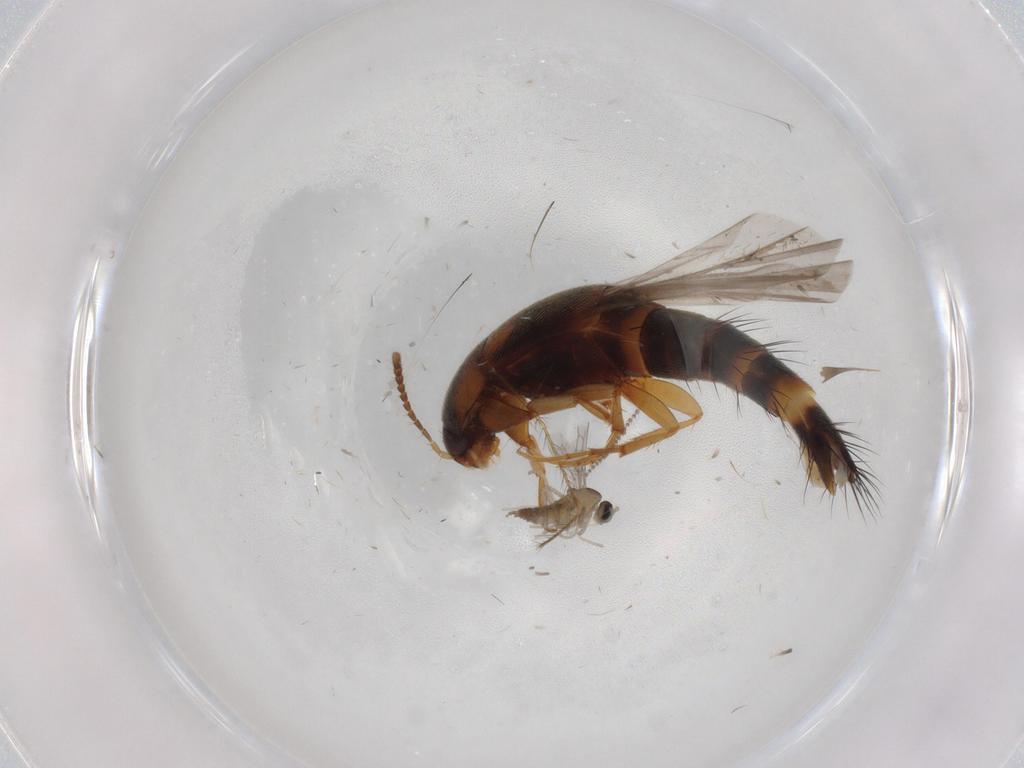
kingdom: Animalia
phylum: Arthropoda
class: Insecta
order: Diptera
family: Cecidomyiidae
